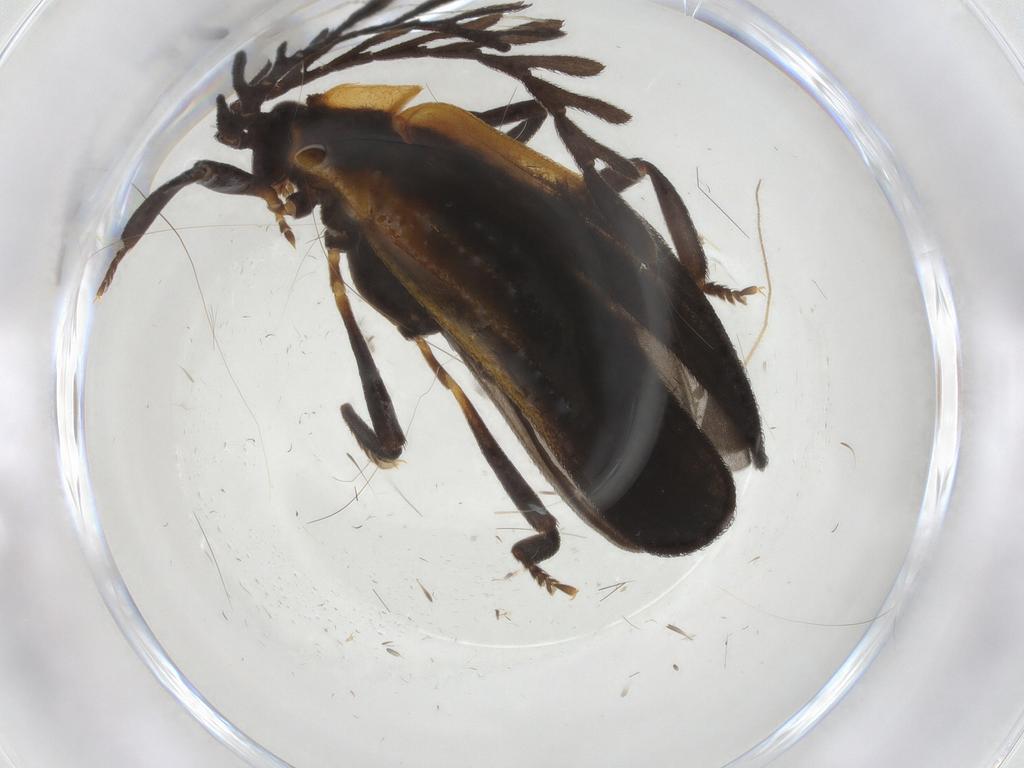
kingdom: Animalia
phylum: Arthropoda
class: Insecta
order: Coleoptera
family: Lycidae
